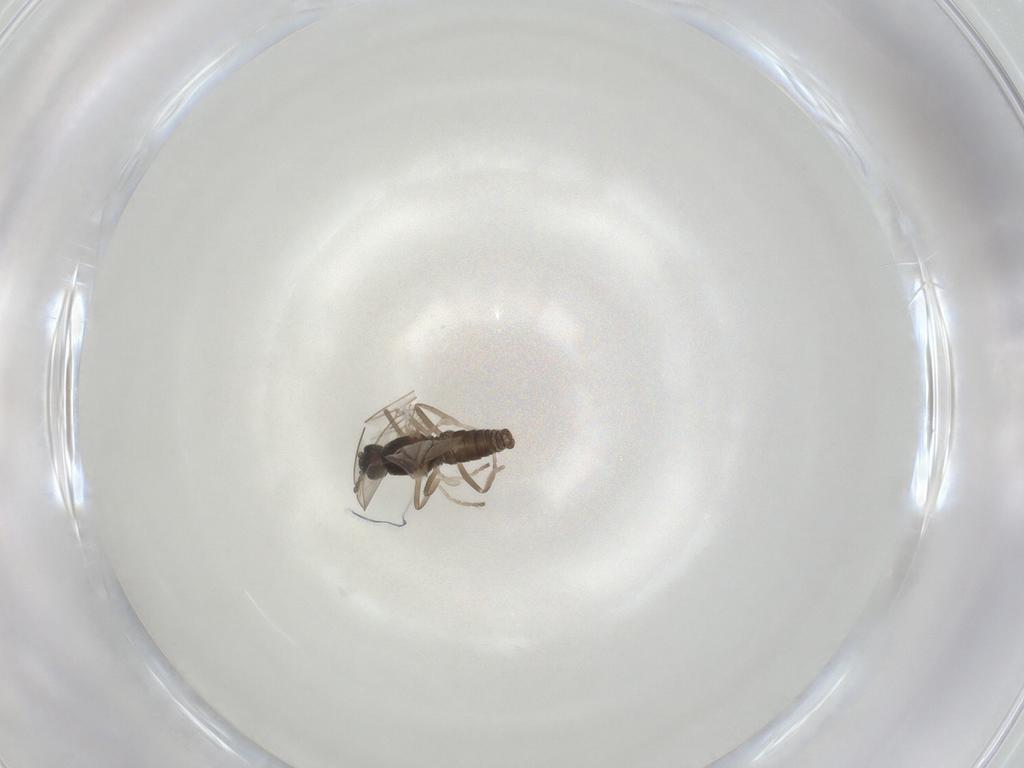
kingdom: Animalia
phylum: Arthropoda
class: Insecta
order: Diptera
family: Cecidomyiidae
